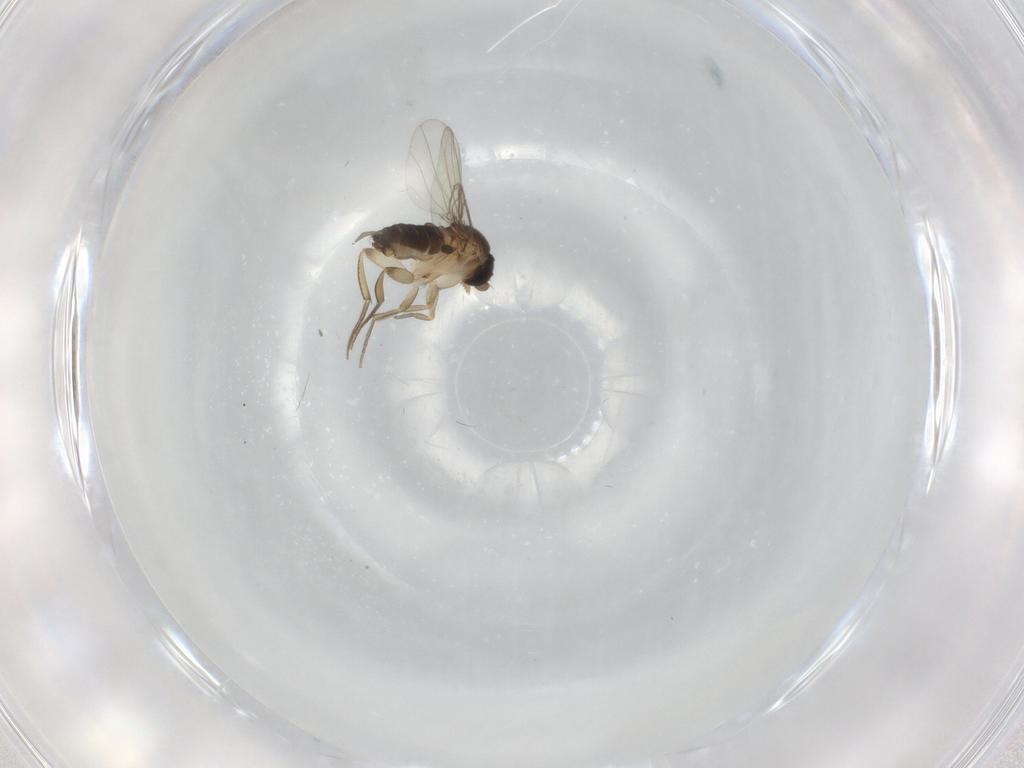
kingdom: Animalia
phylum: Arthropoda
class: Insecta
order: Diptera
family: Phoridae
